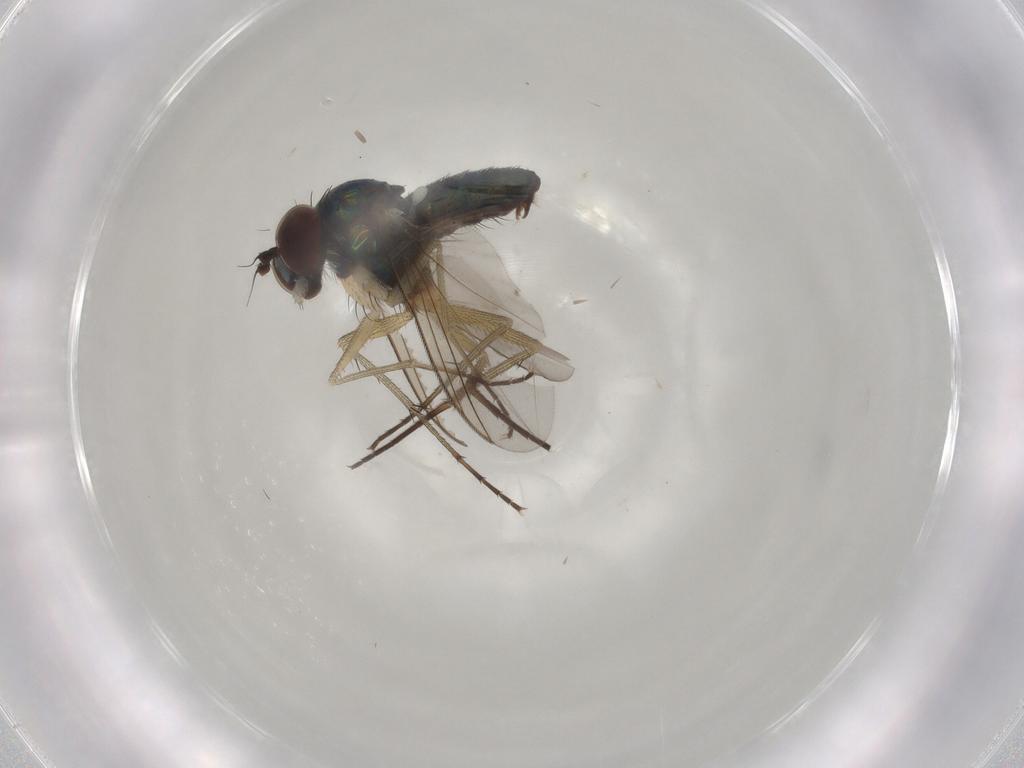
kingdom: Animalia
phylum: Arthropoda
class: Insecta
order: Diptera
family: Dolichopodidae
